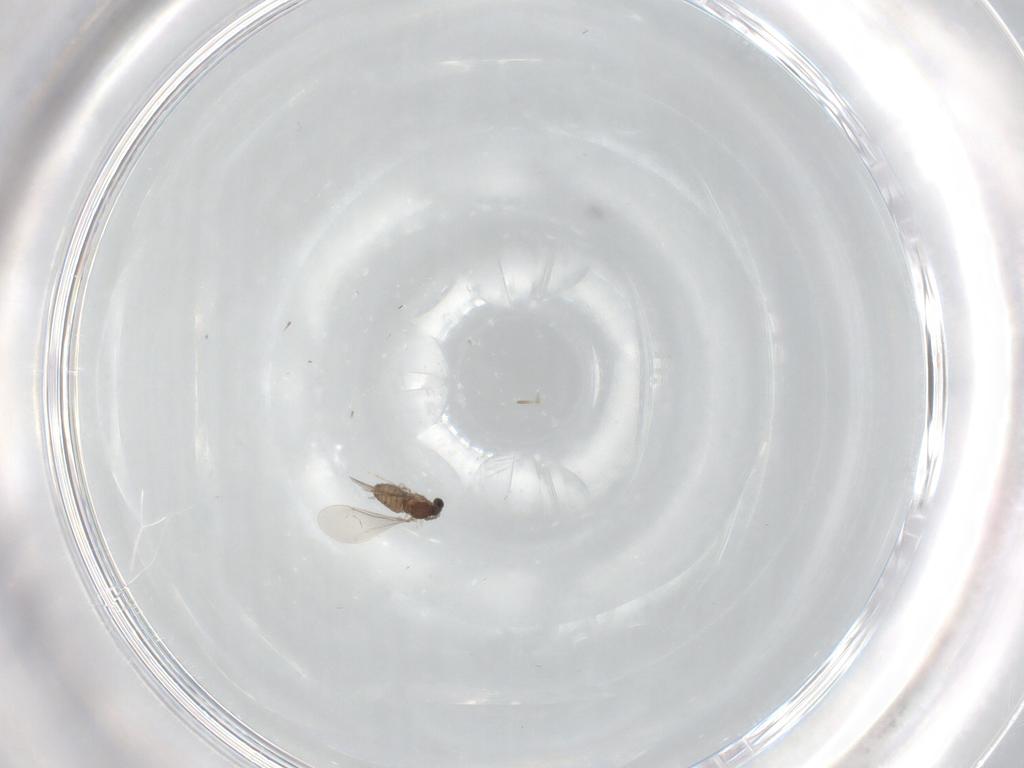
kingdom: Animalia
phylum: Arthropoda
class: Insecta
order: Diptera
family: Cecidomyiidae
